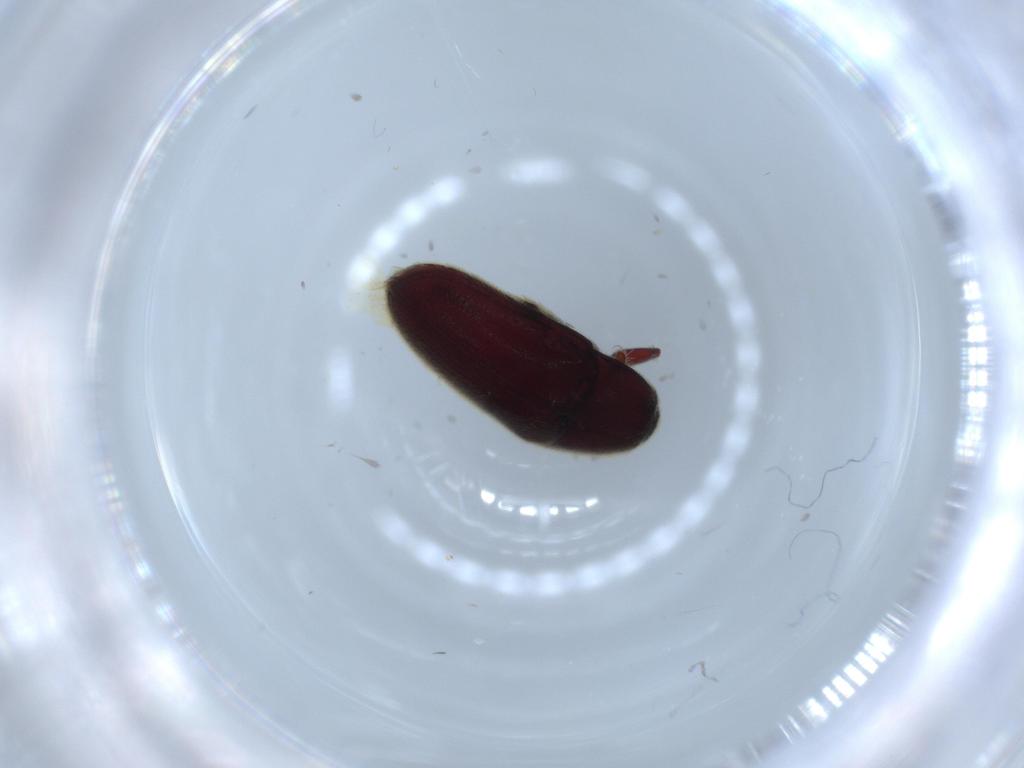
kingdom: Animalia
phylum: Arthropoda
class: Insecta
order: Coleoptera
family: Throscidae
